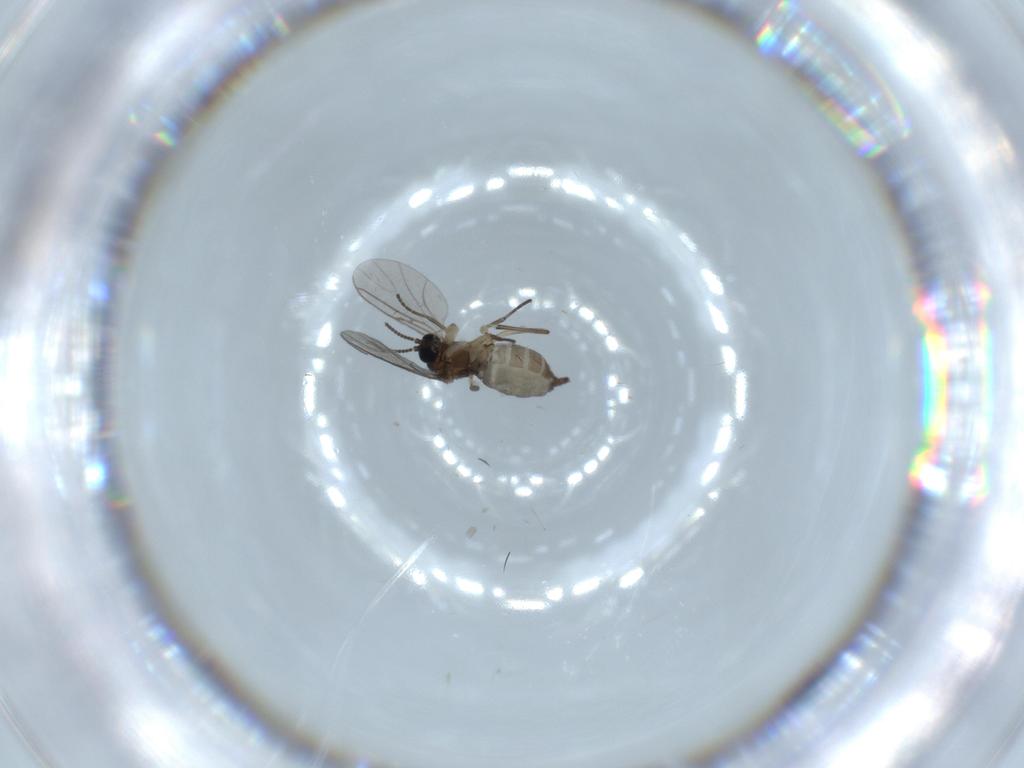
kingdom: Animalia
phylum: Arthropoda
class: Insecta
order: Diptera
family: Sciaridae
